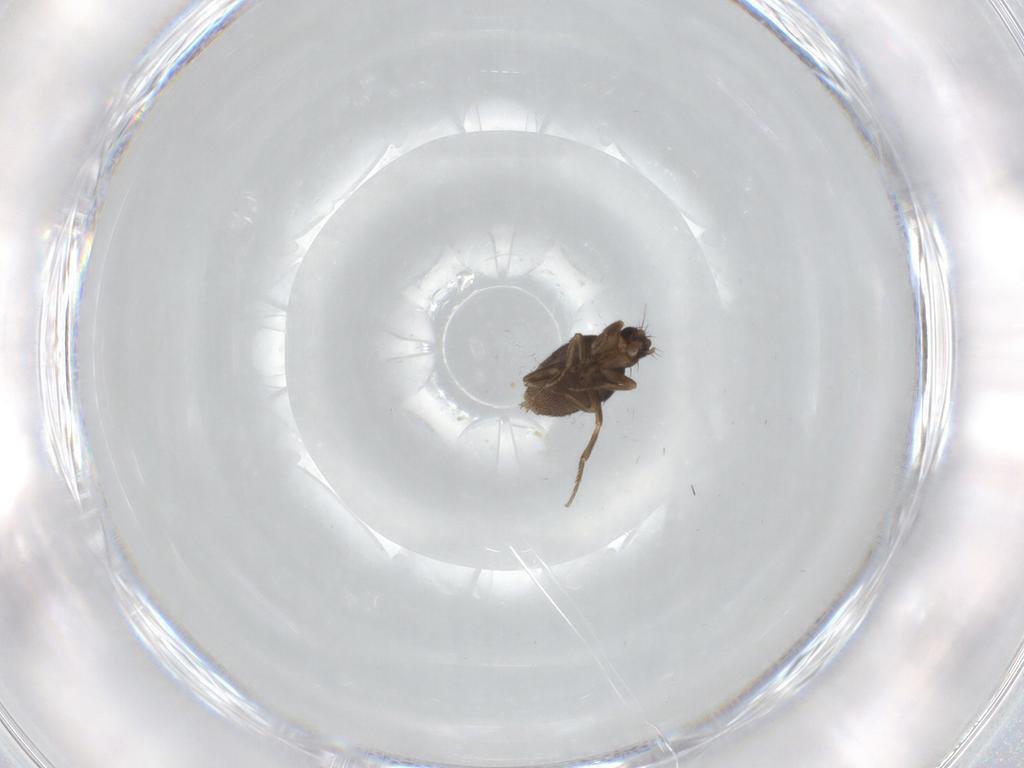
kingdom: Animalia
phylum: Arthropoda
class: Insecta
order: Diptera
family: Phoridae
